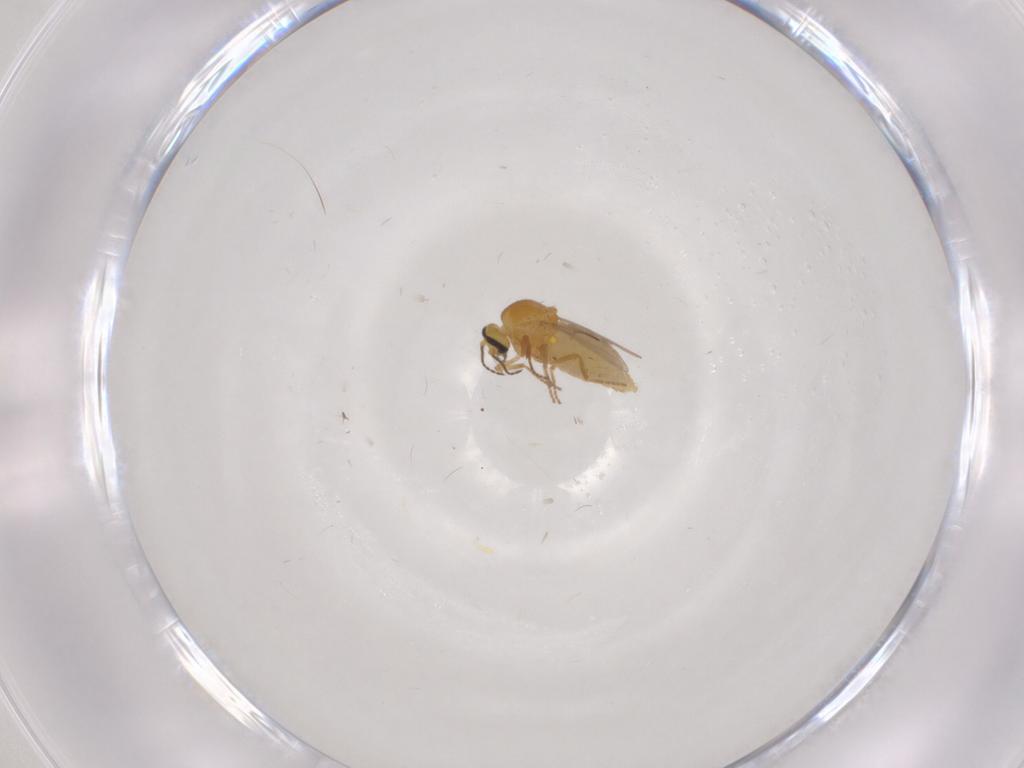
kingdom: Animalia
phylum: Arthropoda
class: Insecta
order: Diptera
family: Ceratopogonidae
